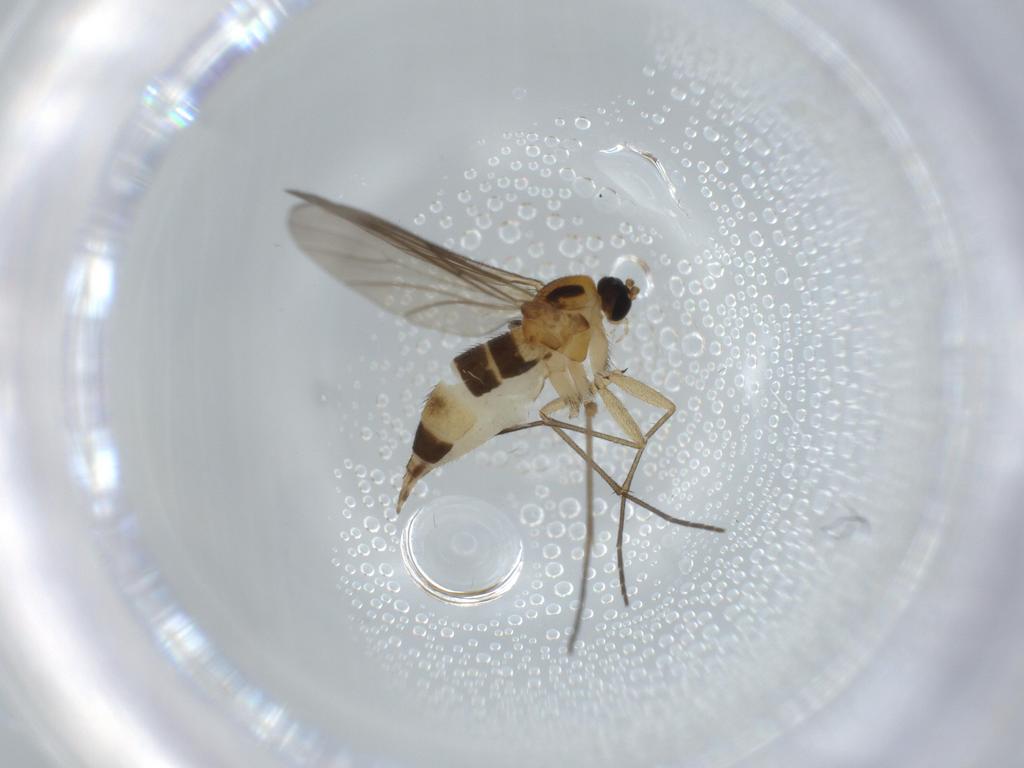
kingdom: Animalia
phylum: Arthropoda
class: Insecta
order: Diptera
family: Sciaridae
